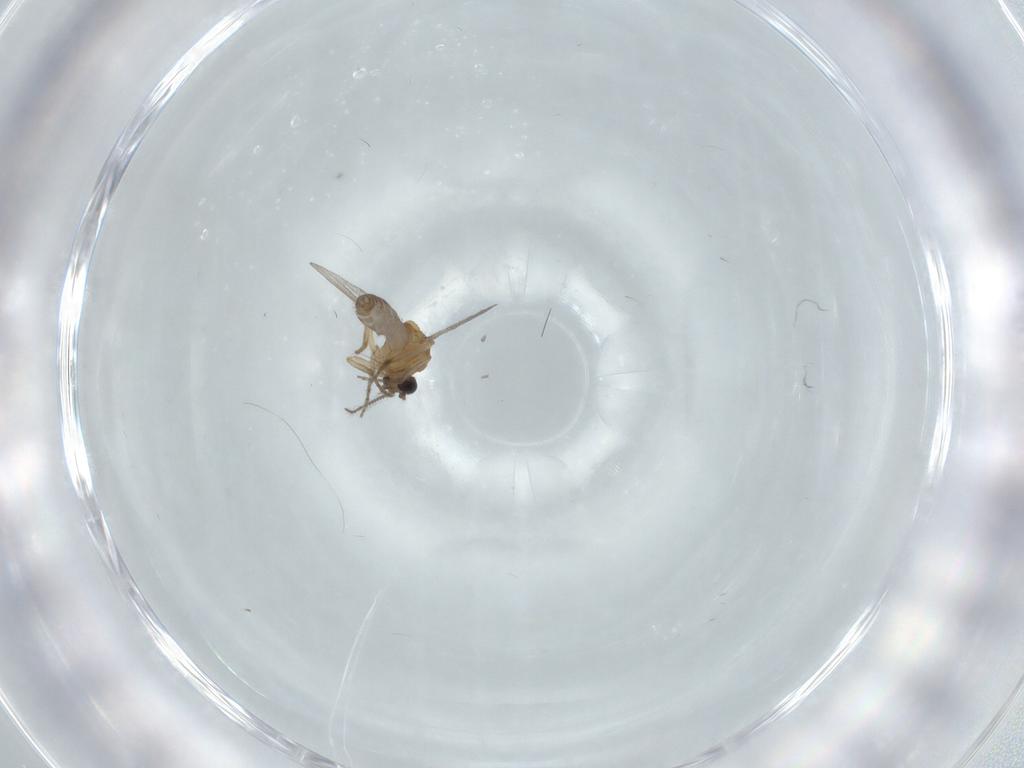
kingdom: Animalia
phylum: Arthropoda
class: Insecta
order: Diptera
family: Ceratopogonidae
